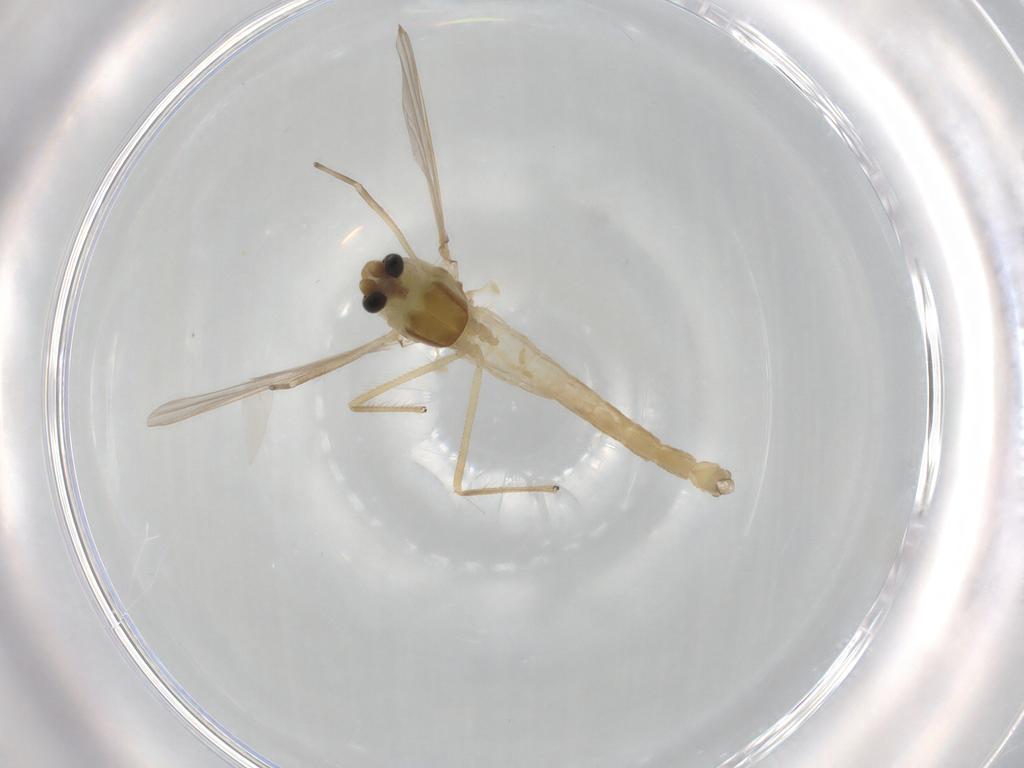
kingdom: Animalia
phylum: Arthropoda
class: Insecta
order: Diptera
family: Chironomidae
